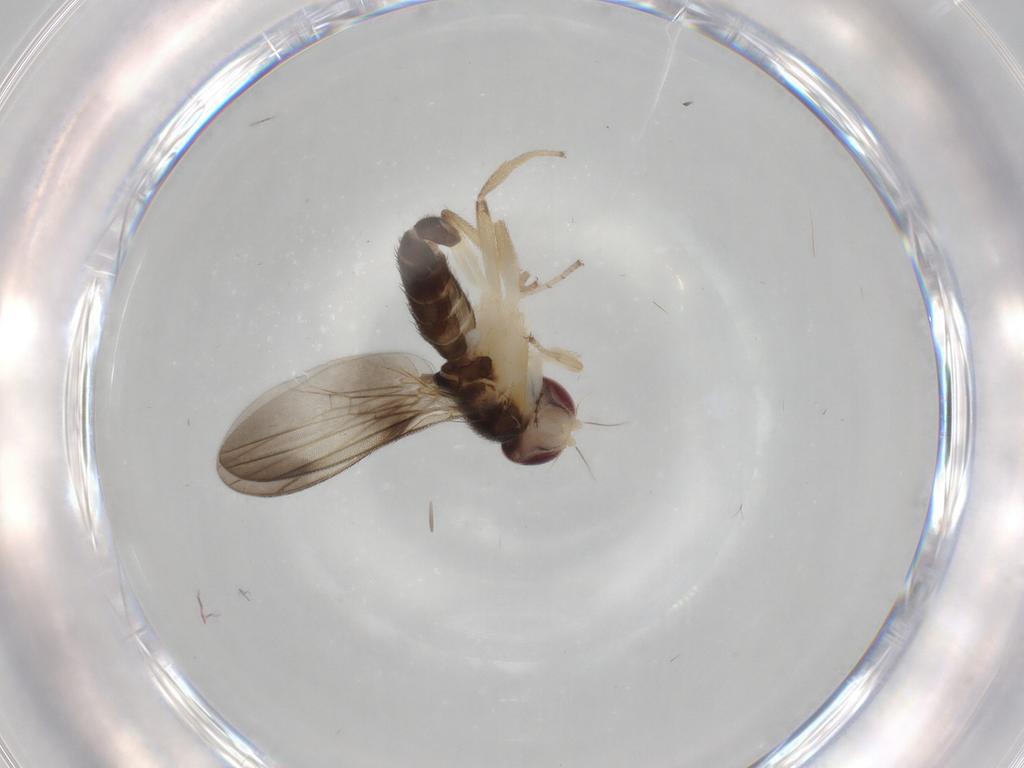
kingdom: Animalia
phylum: Arthropoda
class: Insecta
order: Diptera
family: Clusiidae
